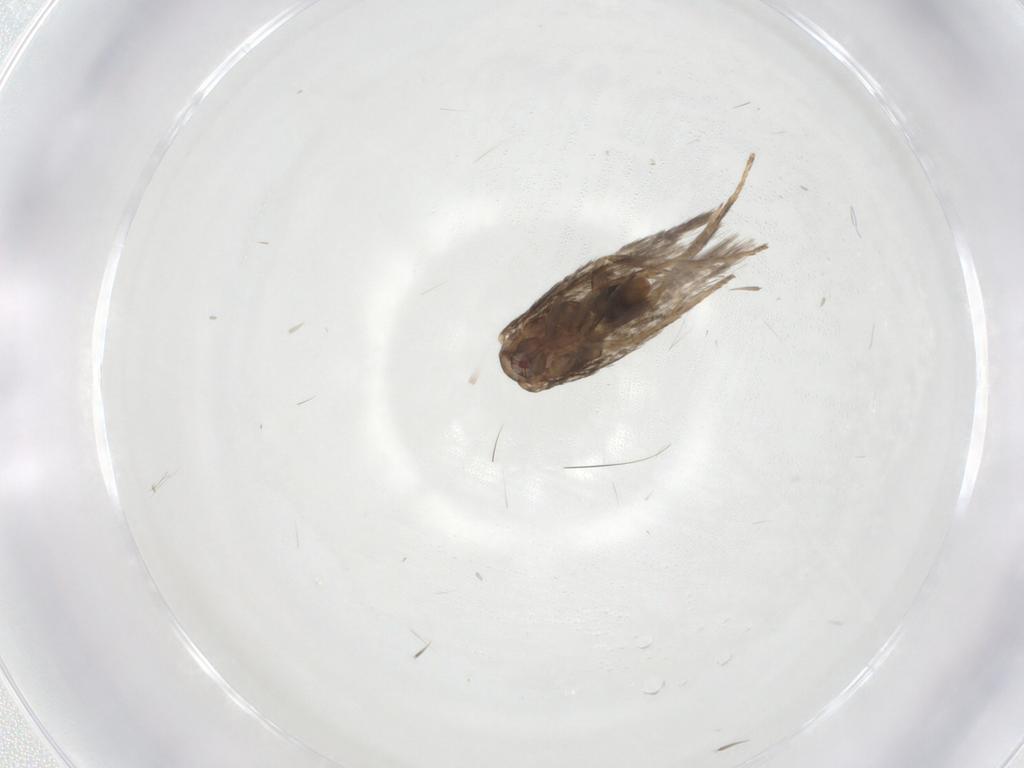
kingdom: Animalia
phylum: Arthropoda
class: Insecta
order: Lepidoptera
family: Nepticulidae
